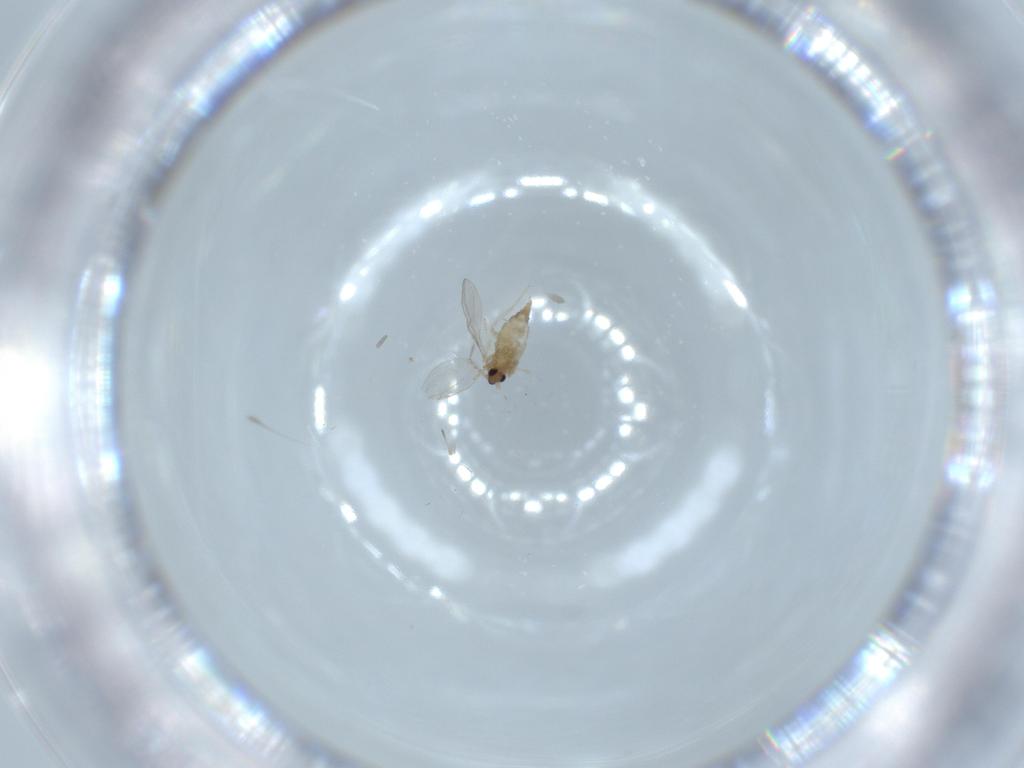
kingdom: Animalia
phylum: Arthropoda
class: Insecta
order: Diptera
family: Cecidomyiidae
